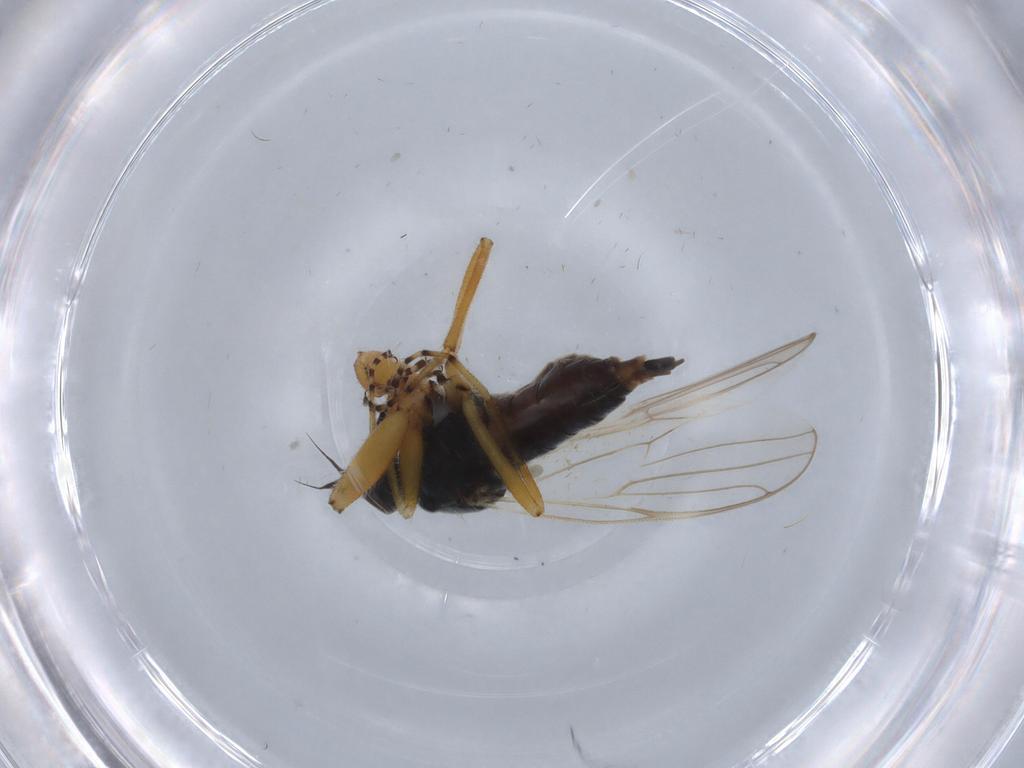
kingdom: Animalia
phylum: Arthropoda
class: Insecta
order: Diptera
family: Hybotidae
